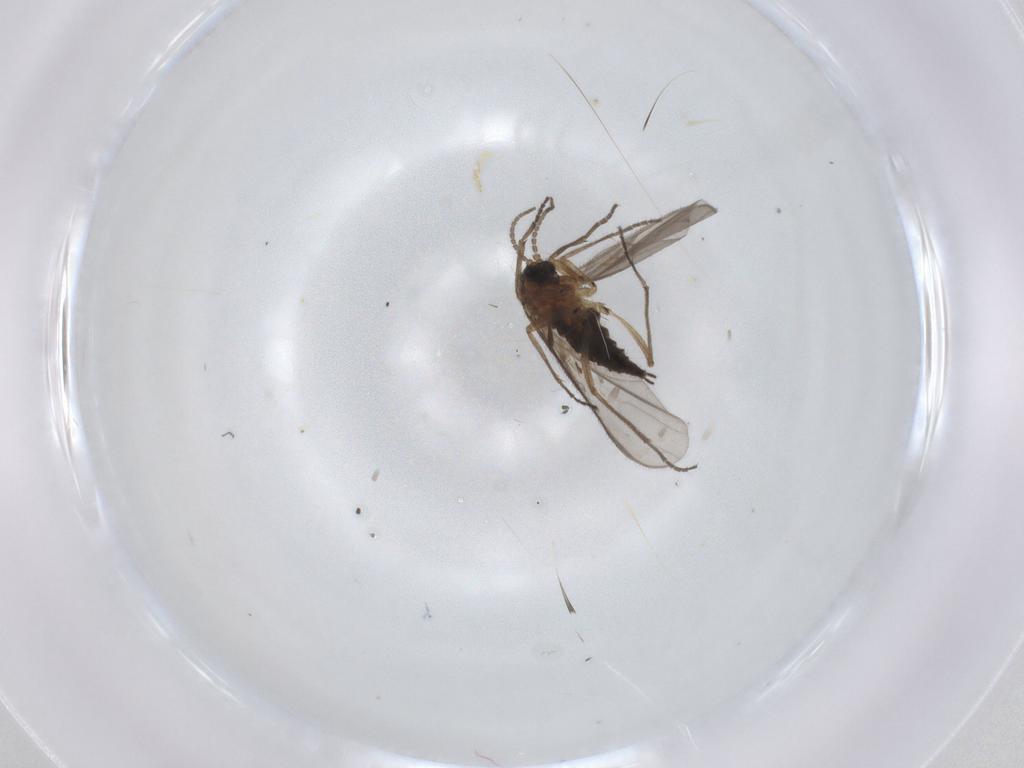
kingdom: Animalia
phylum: Arthropoda
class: Insecta
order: Diptera
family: Sciaridae
